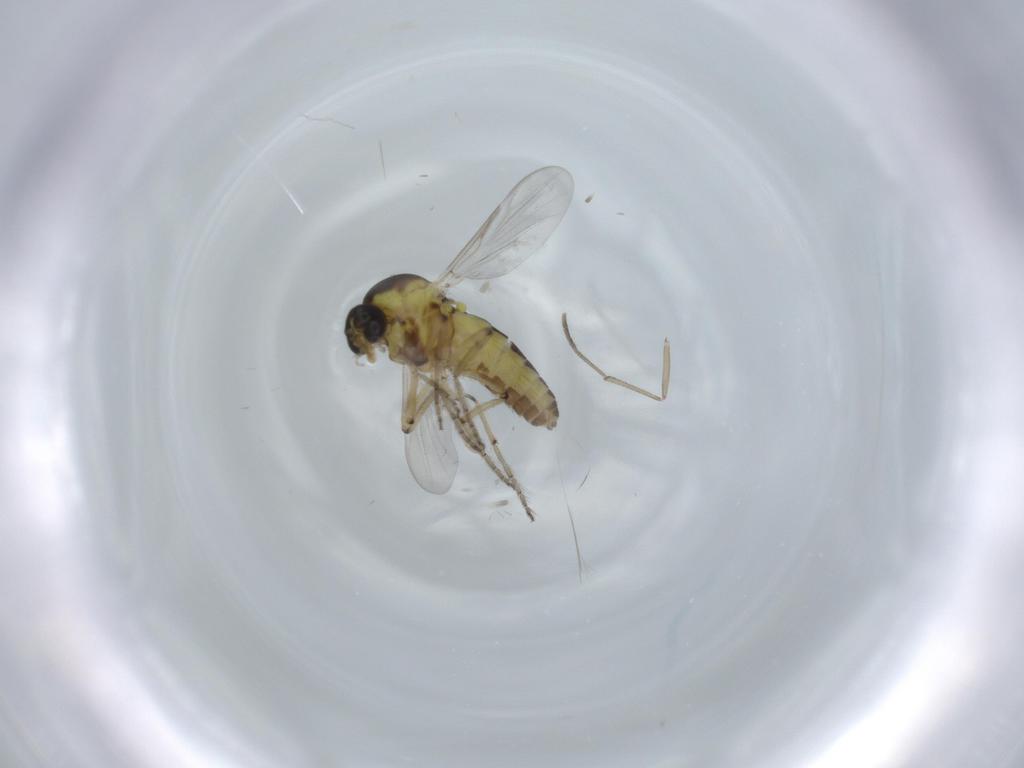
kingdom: Animalia
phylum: Arthropoda
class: Insecta
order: Diptera
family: Ceratopogonidae
